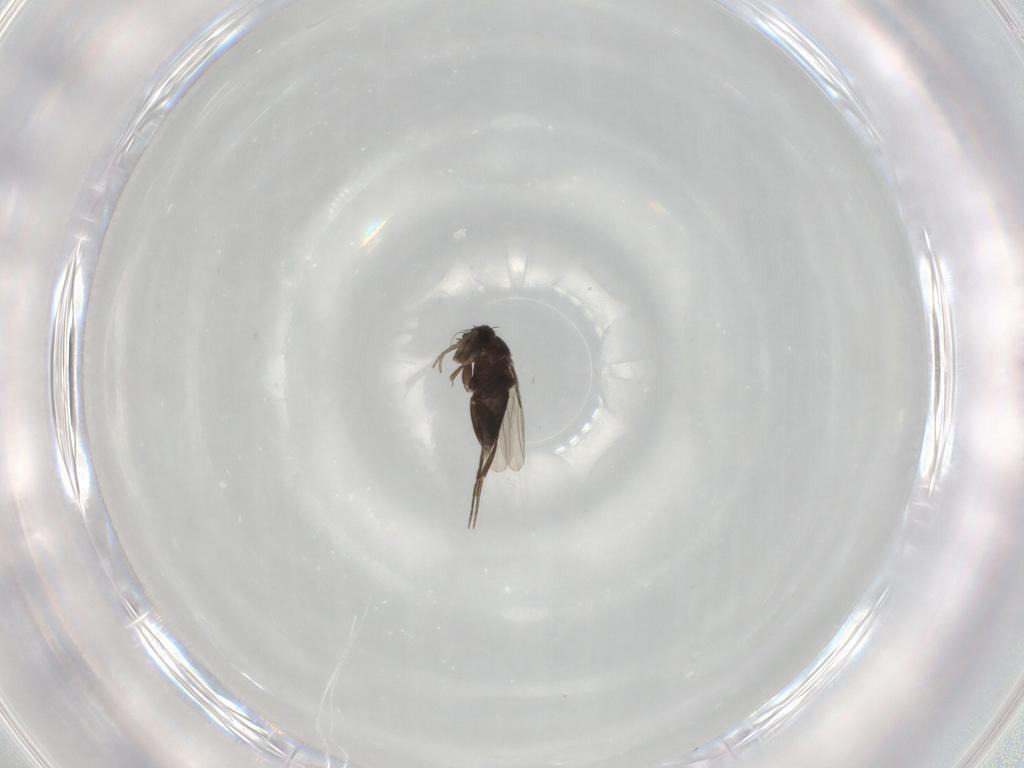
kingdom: Animalia
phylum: Arthropoda
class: Insecta
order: Diptera
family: Phoridae
